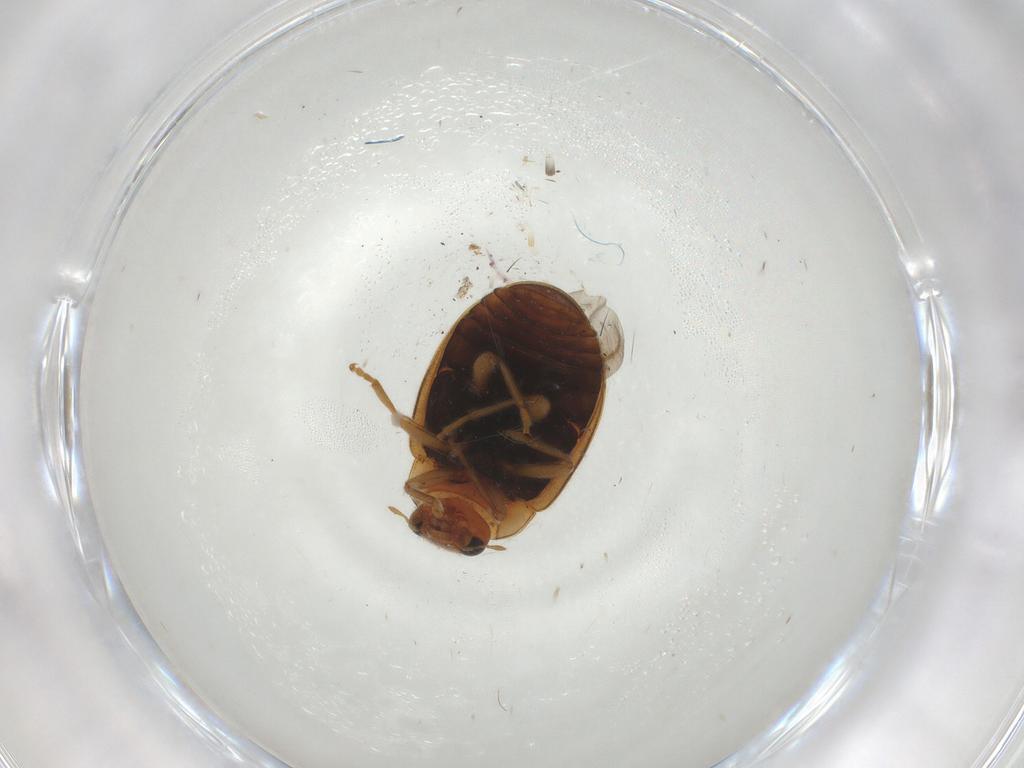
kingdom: Animalia
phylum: Arthropoda
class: Insecta
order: Coleoptera
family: Coccinellidae
